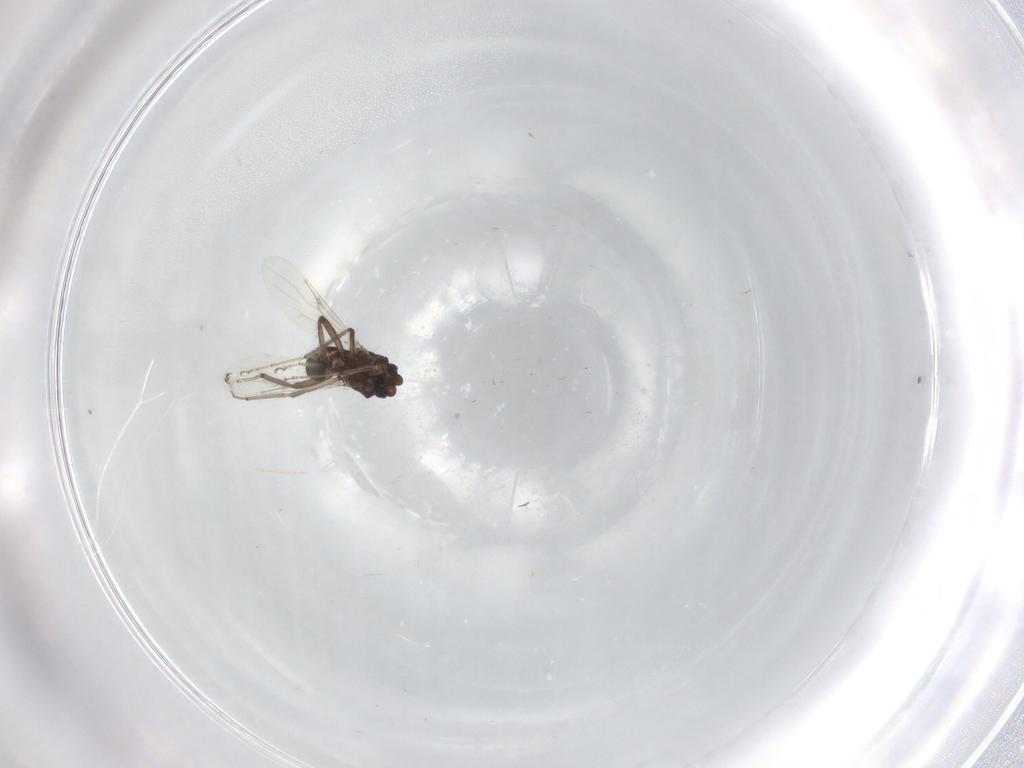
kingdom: Animalia
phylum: Arthropoda
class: Insecta
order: Diptera
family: Ceratopogonidae
